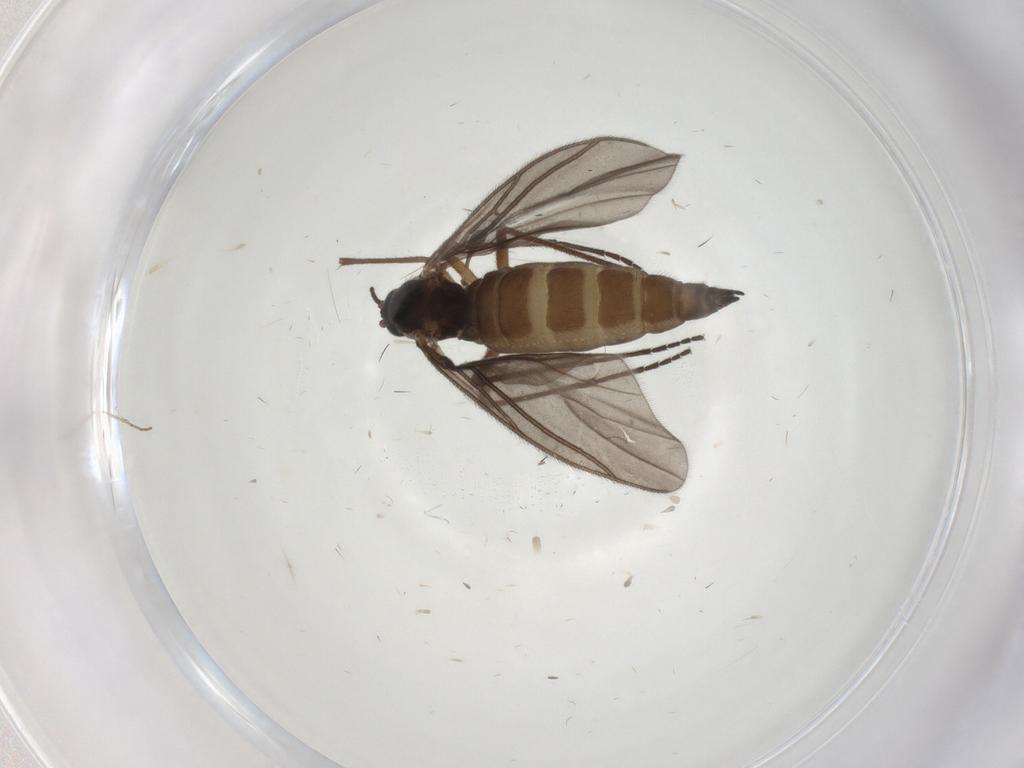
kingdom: Animalia
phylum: Arthropoda
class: Insecta
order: Diptera
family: Sciaridae
